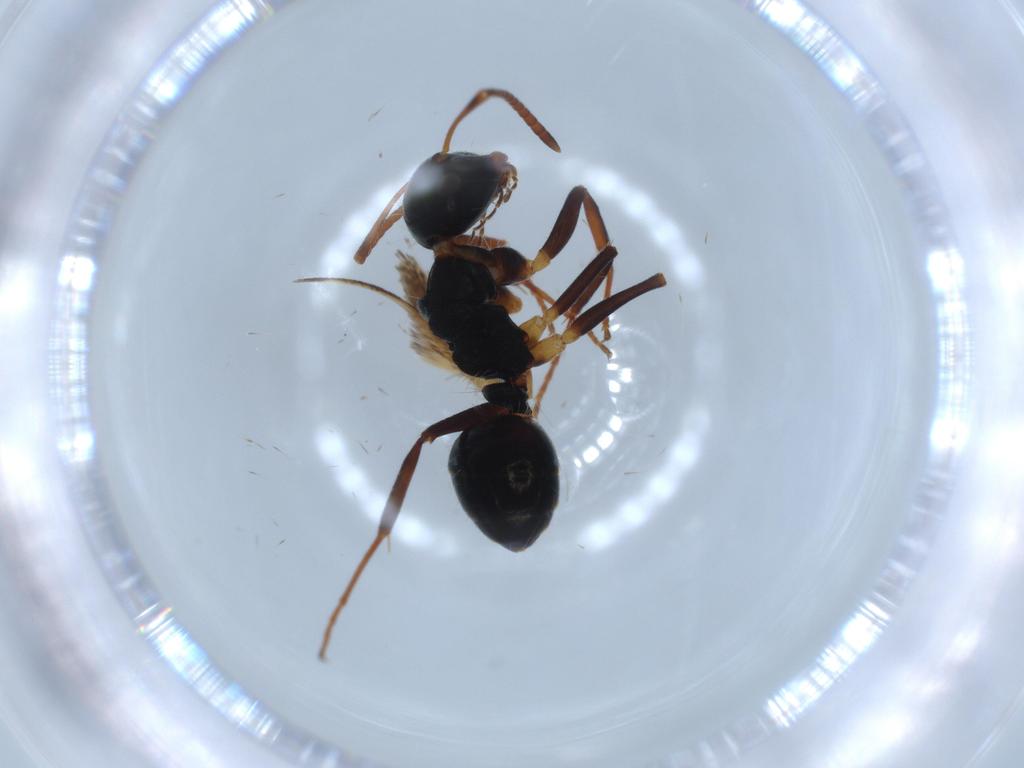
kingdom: Animalia
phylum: Arthropoda
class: Insecta
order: Hymenoptera
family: Formicidae
